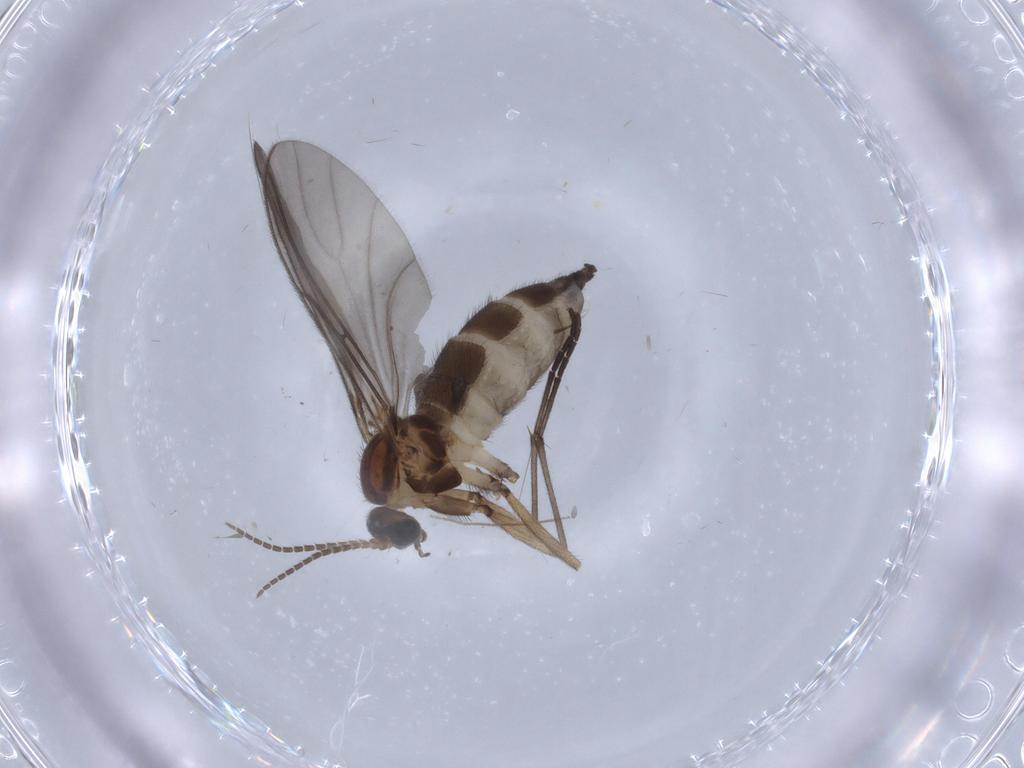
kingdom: Animalia
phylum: Arthropoda
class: Insecta
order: Diptera
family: Sciaridae
